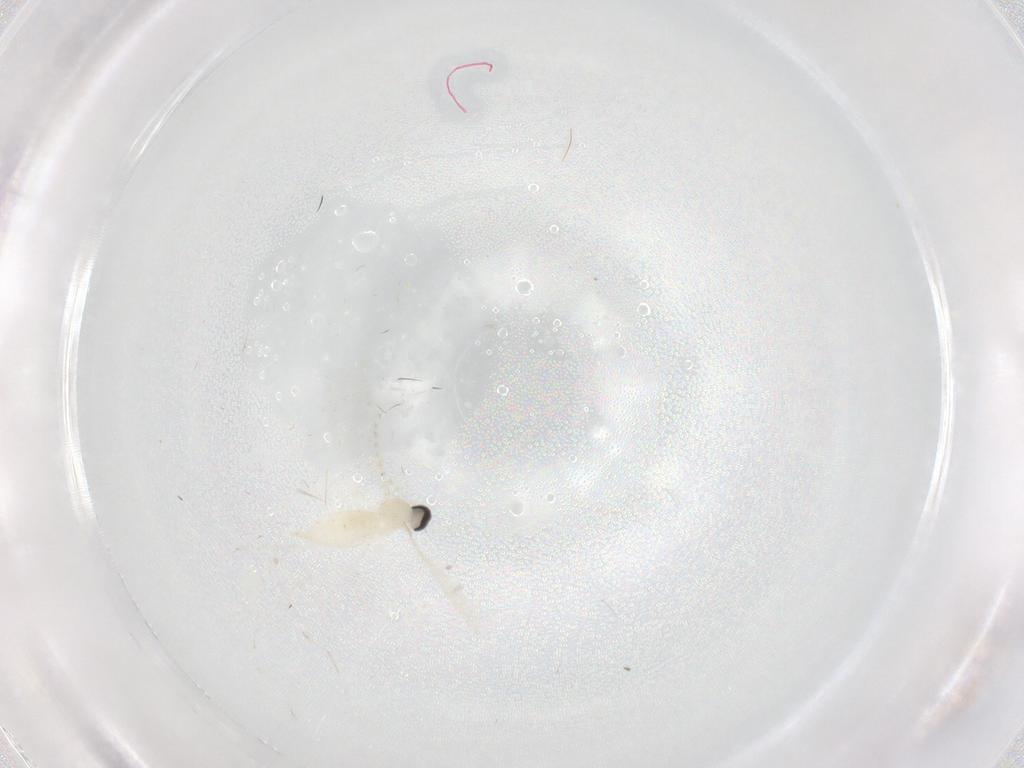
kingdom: Animalia
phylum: Arthropoda
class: Insecta
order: Diptera
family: Cecidomyiidae
